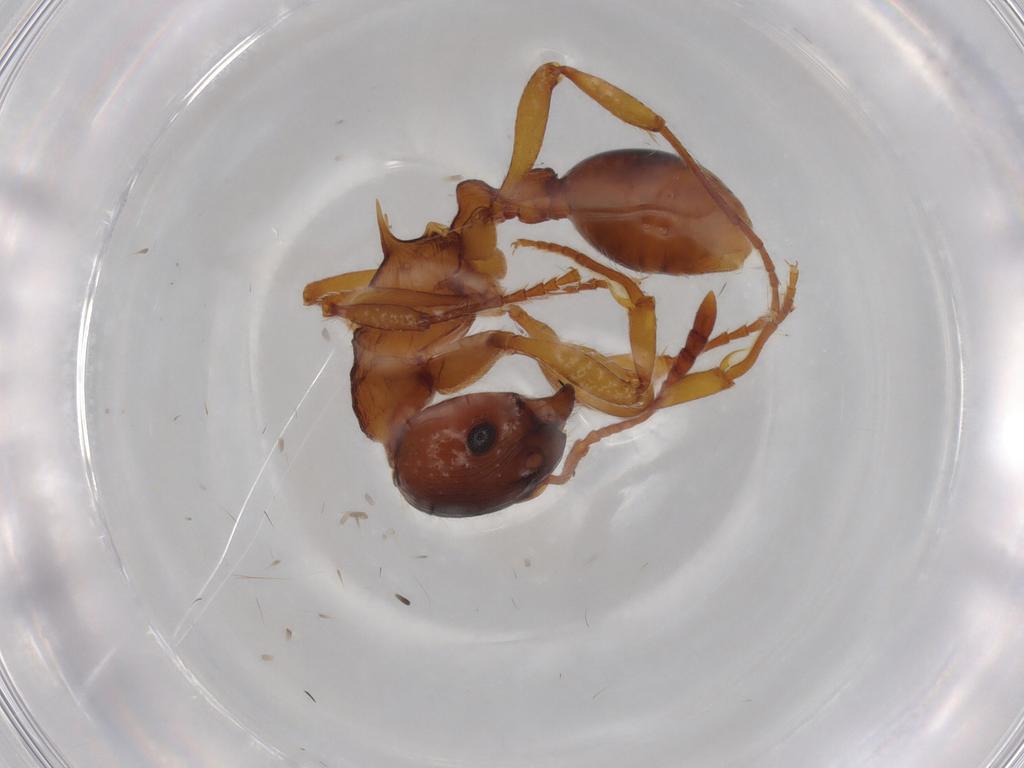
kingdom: Animalia
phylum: Arthropoda
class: Insecta
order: Hymenoptera
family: Formicidae
